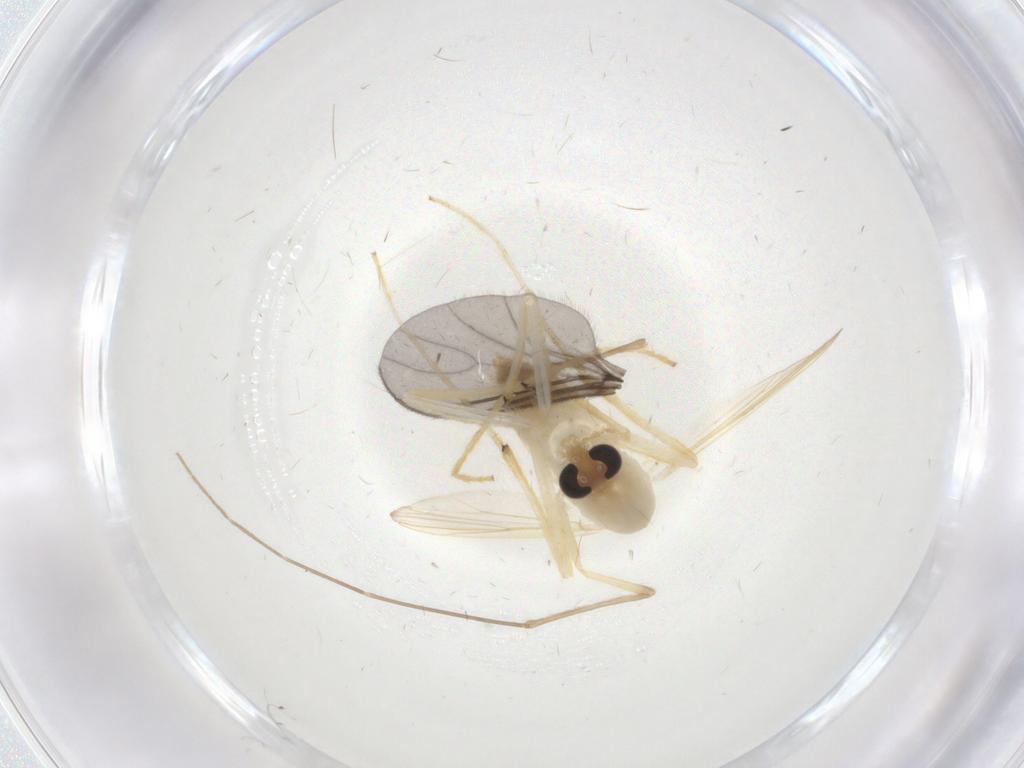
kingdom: Animalia
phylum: Arthropoda
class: Insecta
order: Diptera
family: Chironomidae
